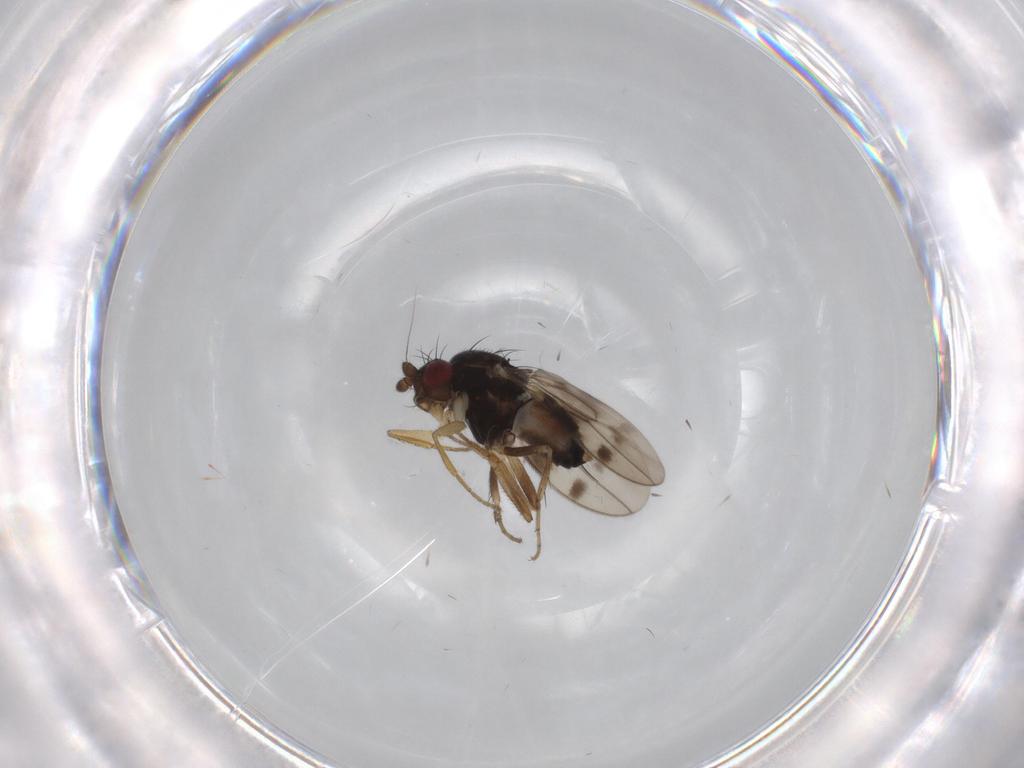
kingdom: Animalia
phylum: Arthropoda
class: Insecta
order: Diptera
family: Sphaeroceridae
